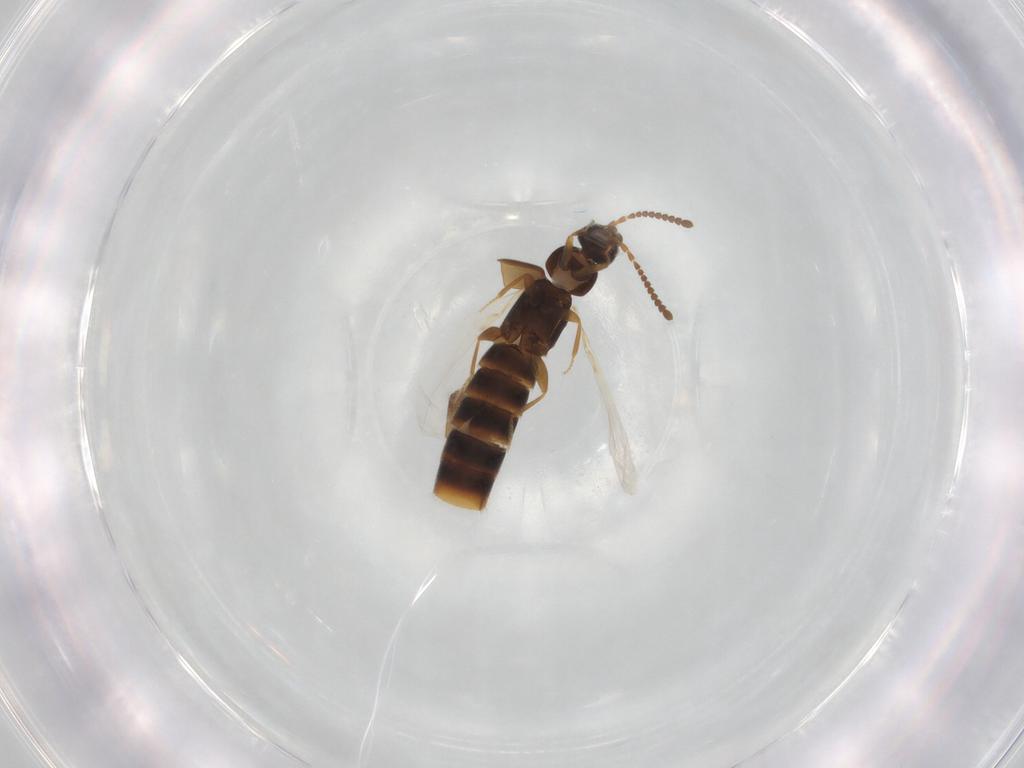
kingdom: Animalia
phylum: Arthropoda
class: Insecta
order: Coleoptera
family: Staphylinidae
